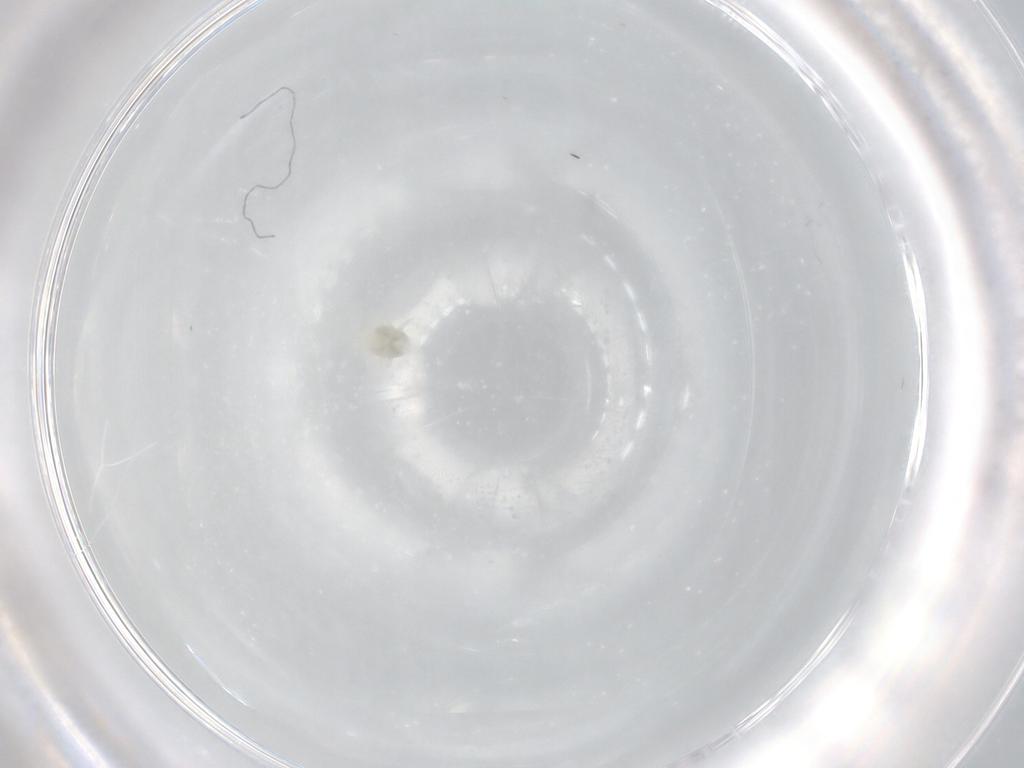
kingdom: Animalia
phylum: Arthropoda
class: Arachnida
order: Mesostigmata
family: Melicharidae
